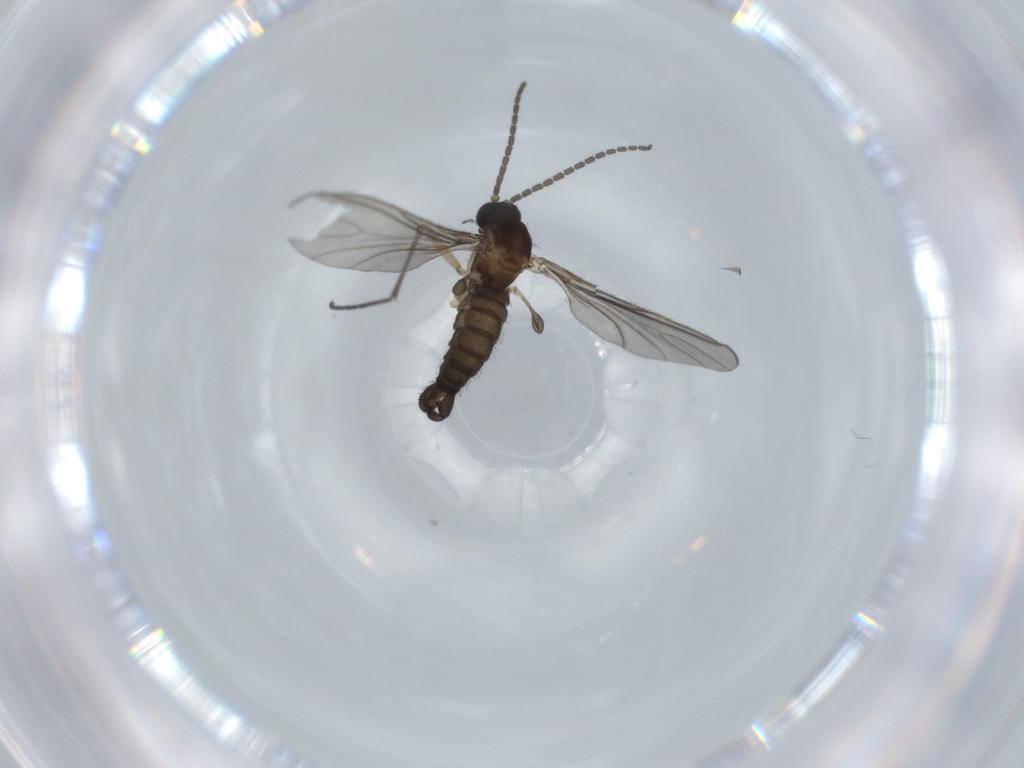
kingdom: Animalia
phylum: Arthropoda
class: Insecta
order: Diptera
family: Sciaridae
